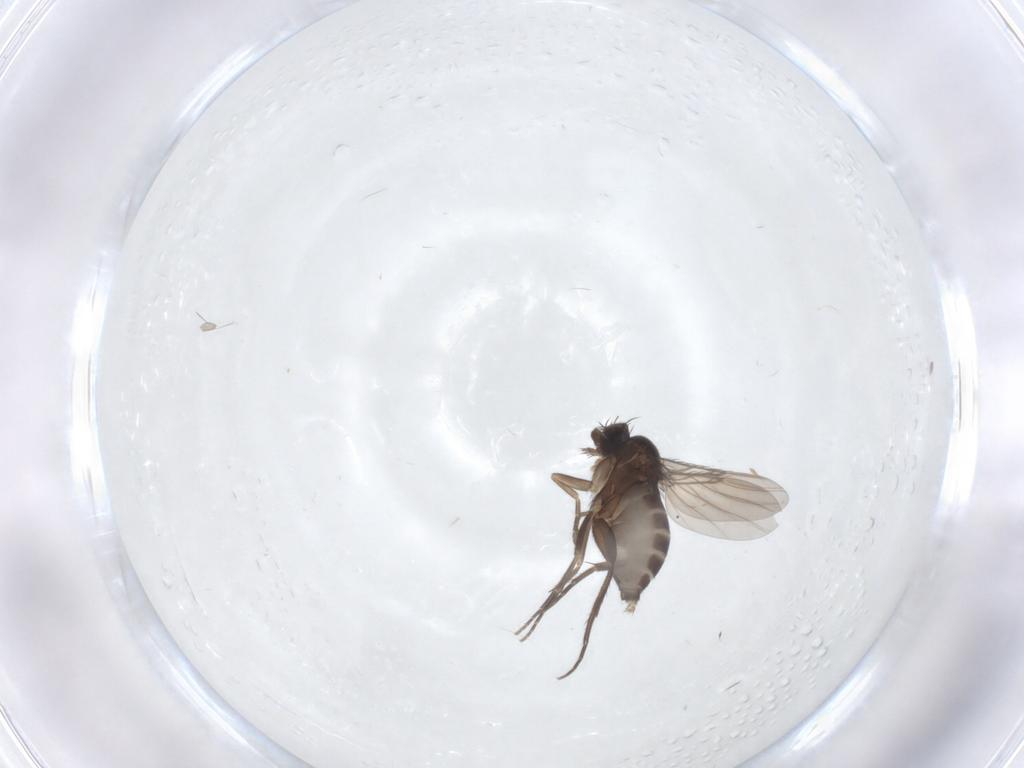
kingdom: Animalia
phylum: Arthropoda
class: Insecta
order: Diptera
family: Phoridae
